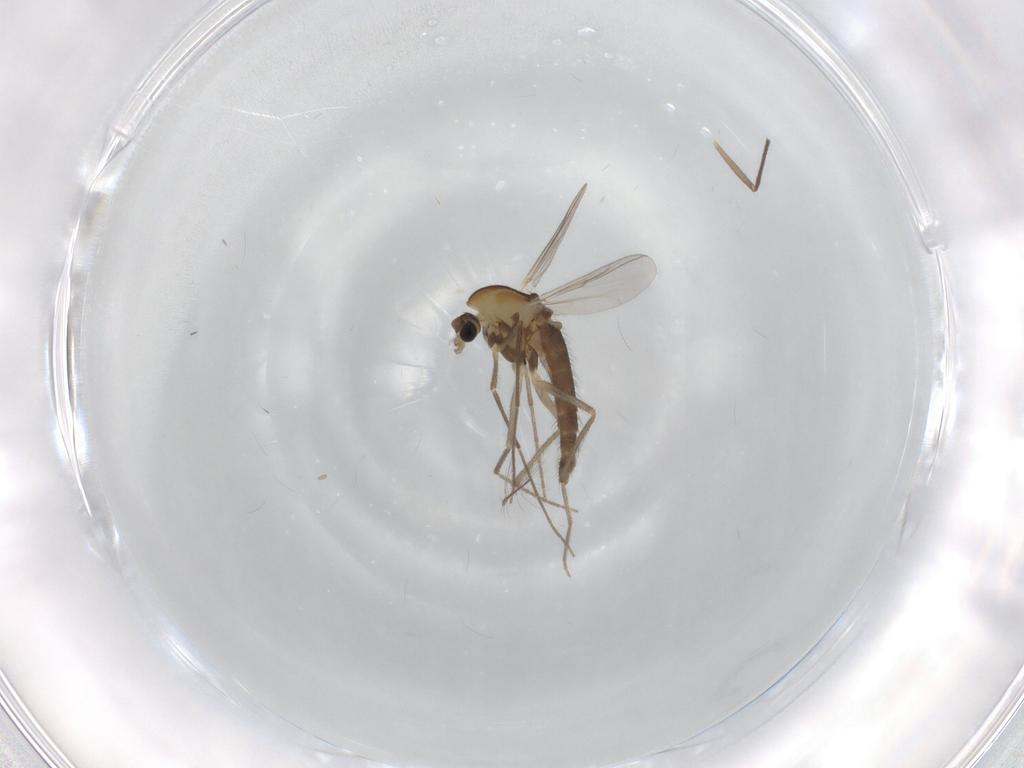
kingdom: Animalia
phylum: Arthropoda
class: Insecta
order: Diptera
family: Chironomidae
